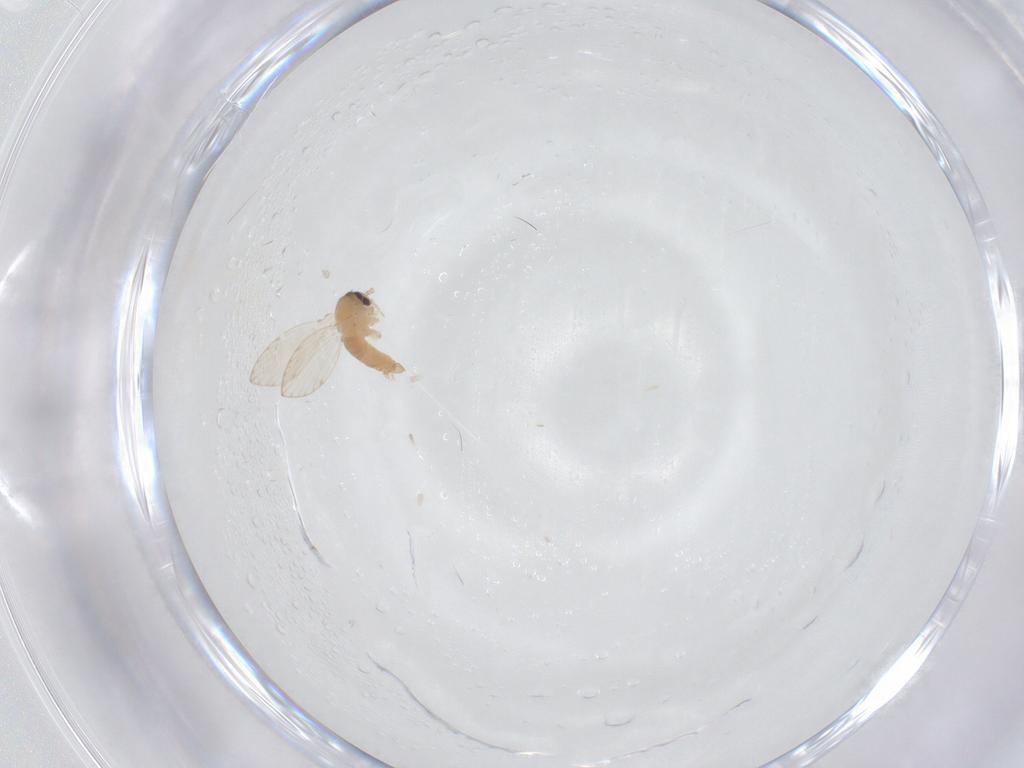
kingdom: Animalia
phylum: Arthropoda
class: Insecta
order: Diptera
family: Psychodidae
